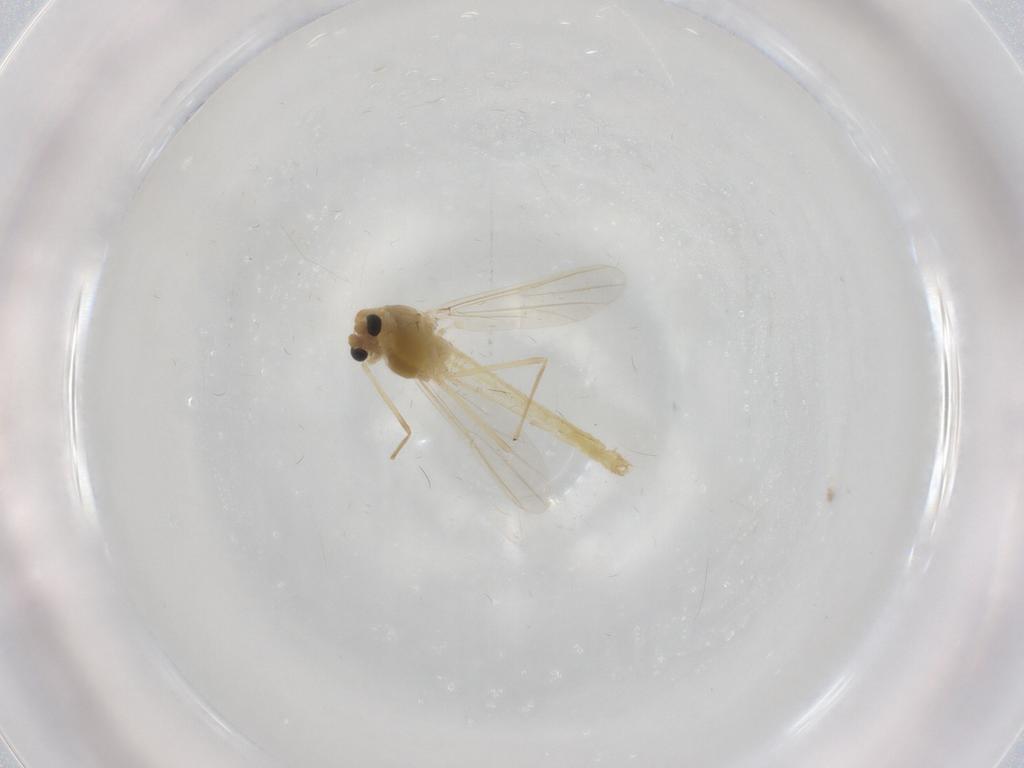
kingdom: Animalia
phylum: Arthropoda
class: Insecta
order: Diptera
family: Chironomidae
